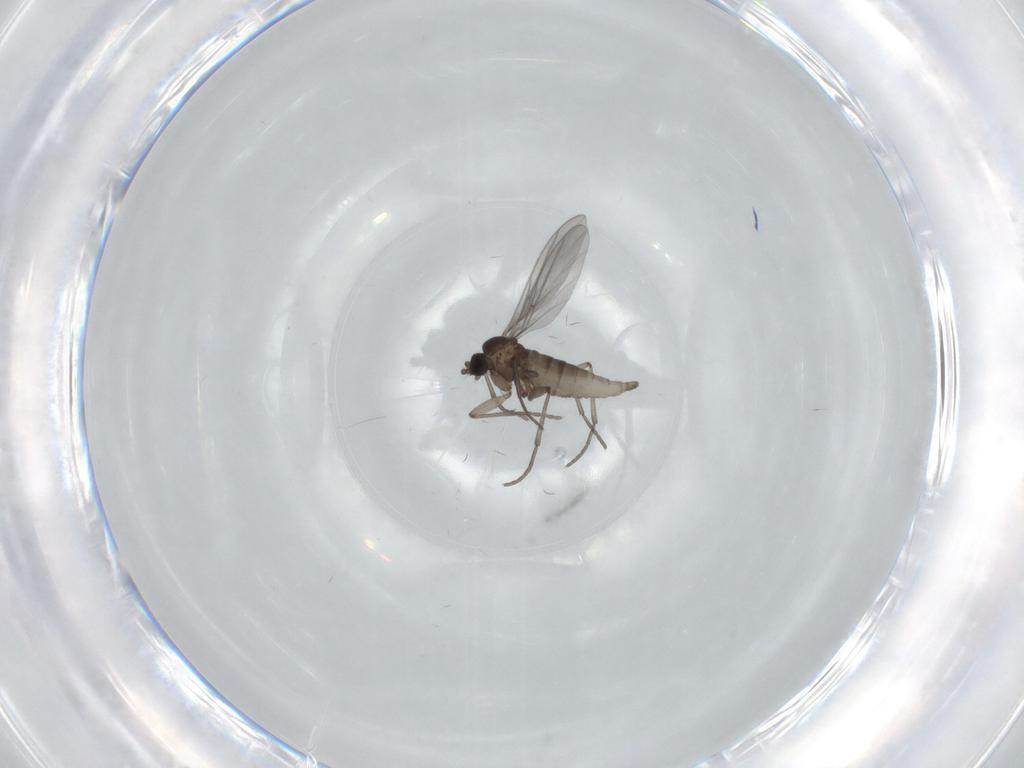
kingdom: Animalia
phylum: Arthropoda
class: Insecta
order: Diptera
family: Sciaridae
